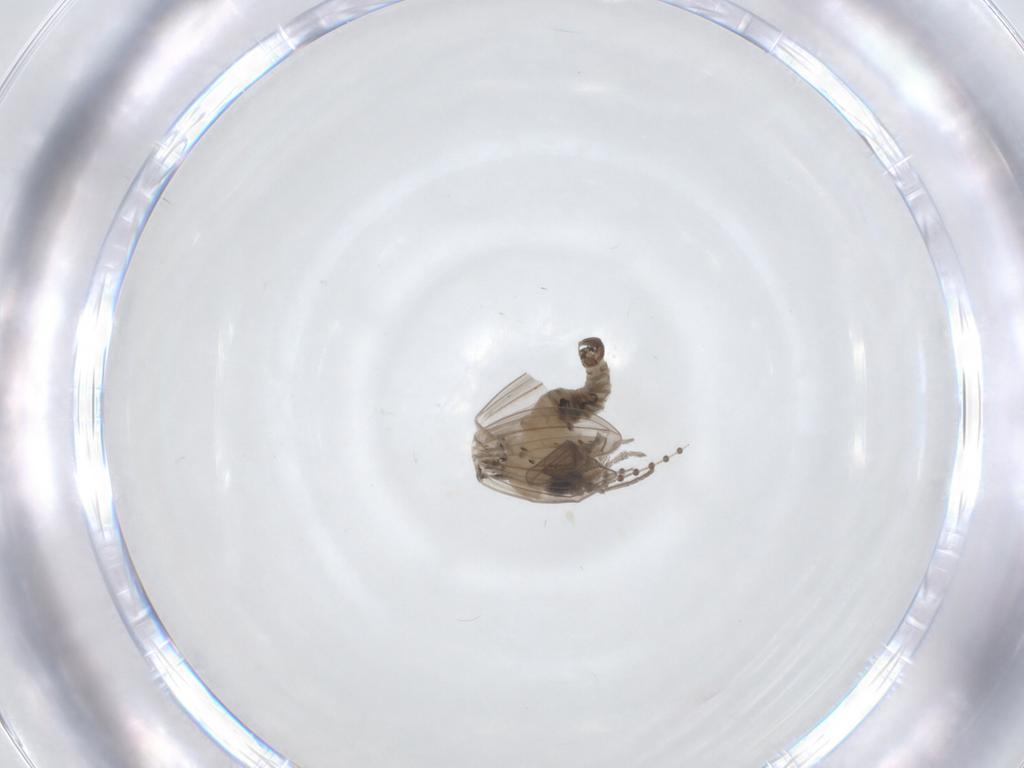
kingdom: Animalia
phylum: Arthropoda
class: Insecta
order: Diptera
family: Psychodidae
